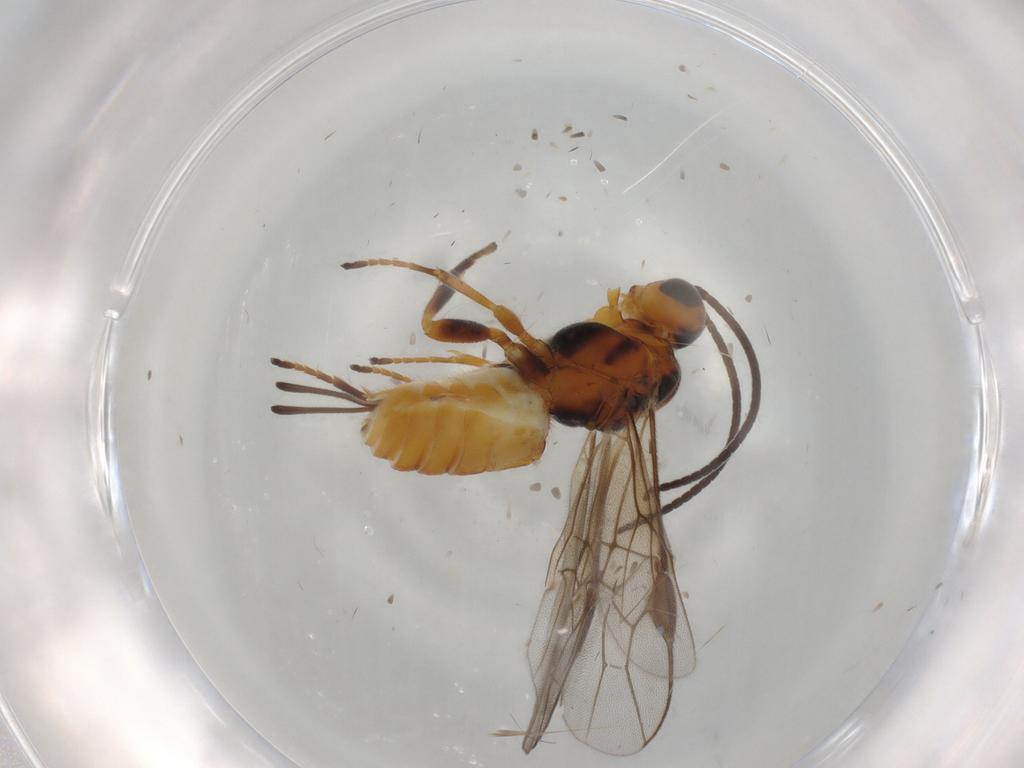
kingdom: Animalia
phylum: Arthropoda
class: Insecta
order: Hymenoptera
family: Braconidae
